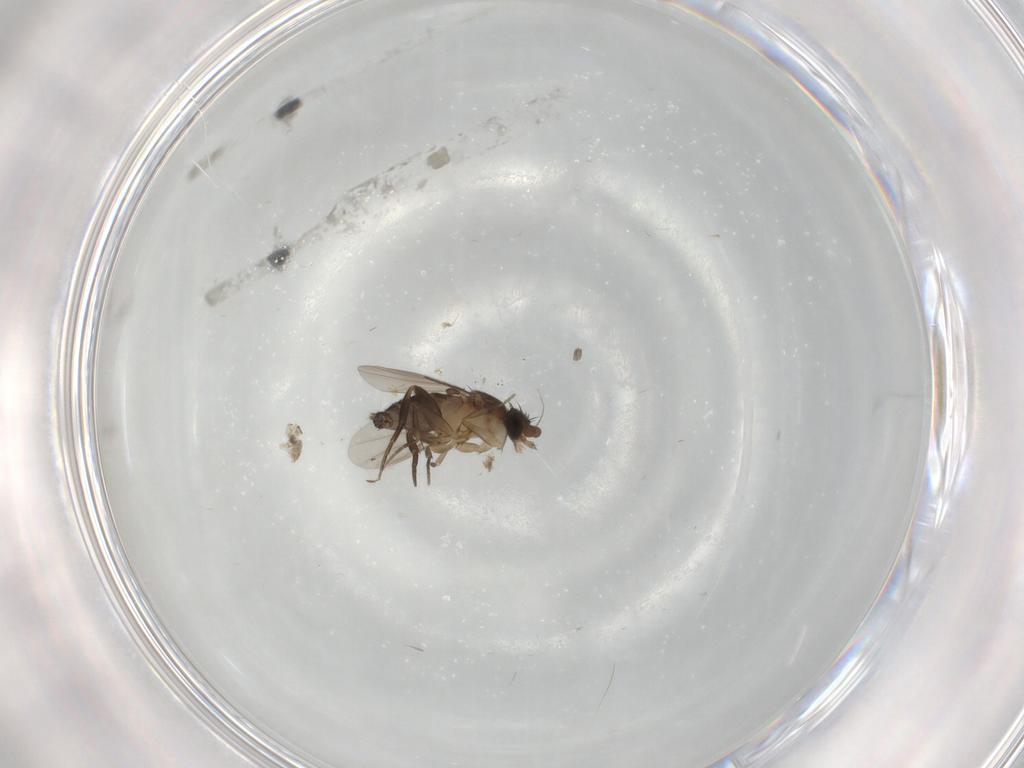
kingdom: Animalia
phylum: Arthropoda
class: Insecta
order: Diptera
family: Phoridae
